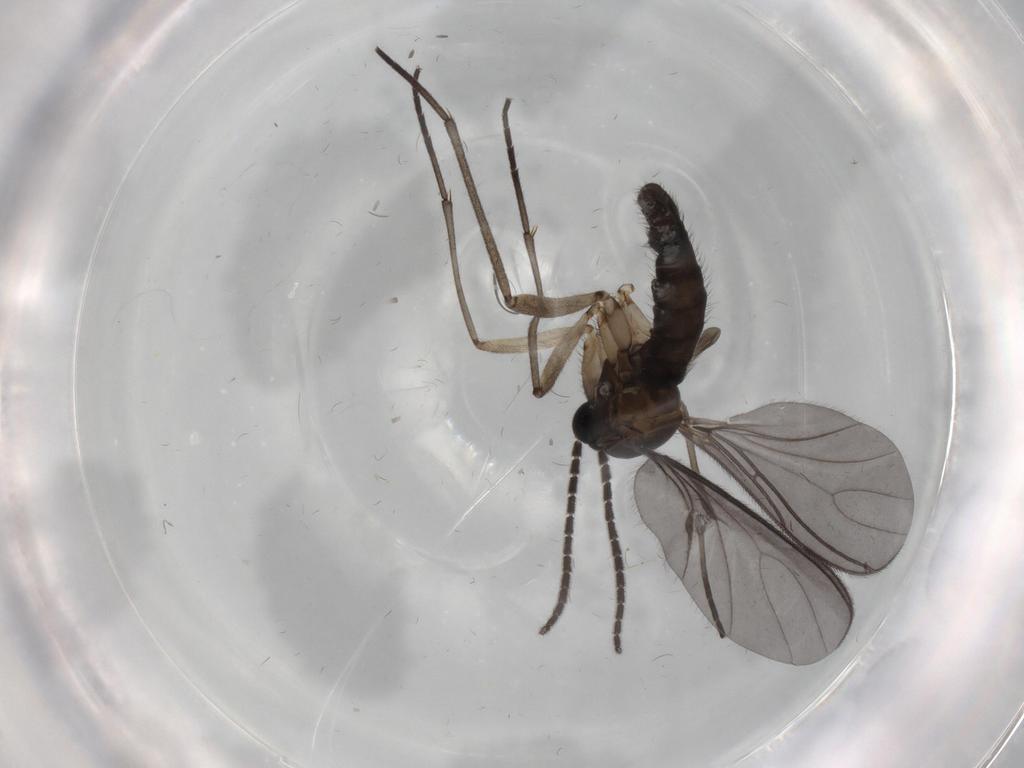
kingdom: Animalia
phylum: Arthropoda
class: Insecta
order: Diptera
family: Sciaridae
